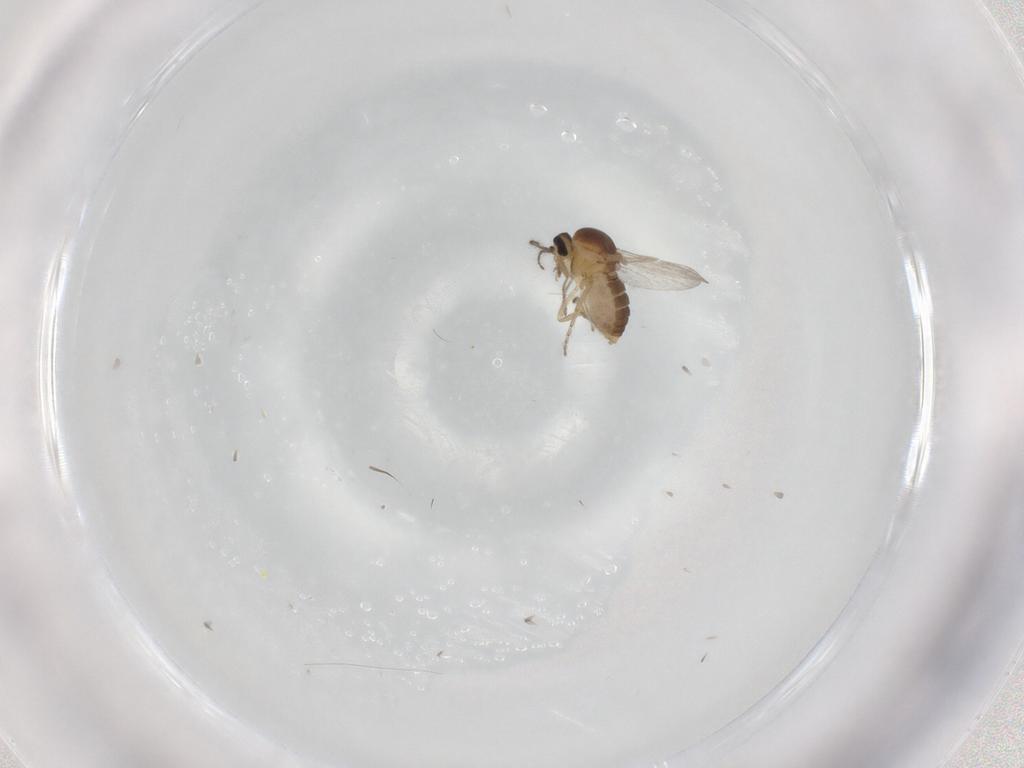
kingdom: Animalia
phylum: Arthropoda
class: Insecta
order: Diptera
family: Ceratopogonidae
